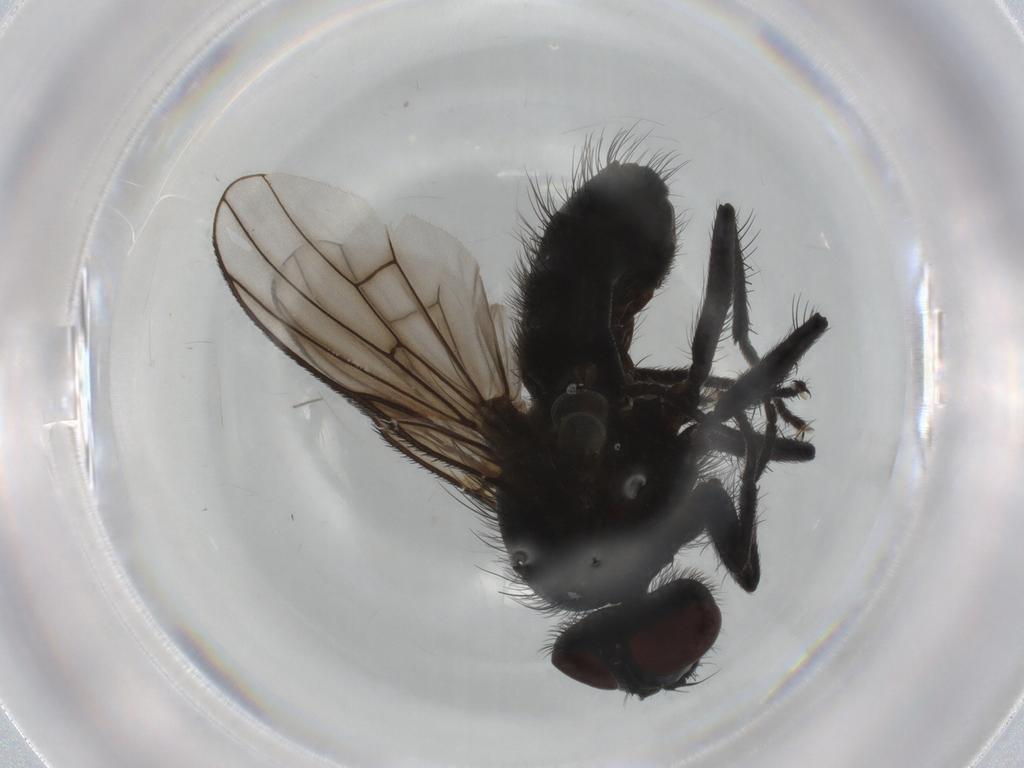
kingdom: Animalia
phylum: Arthropoda
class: Insecta
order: Diptera
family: Muscidae
